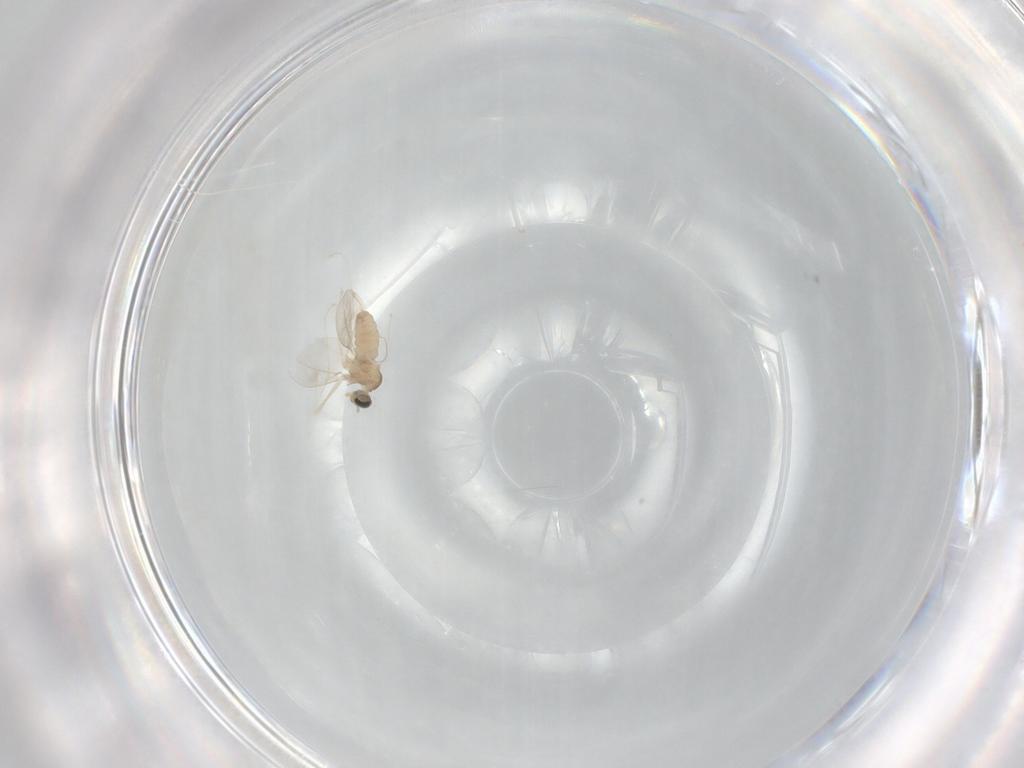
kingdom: Animalia
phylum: Arthropoda
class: Insecta
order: Diptera
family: Cecidomyiidae
